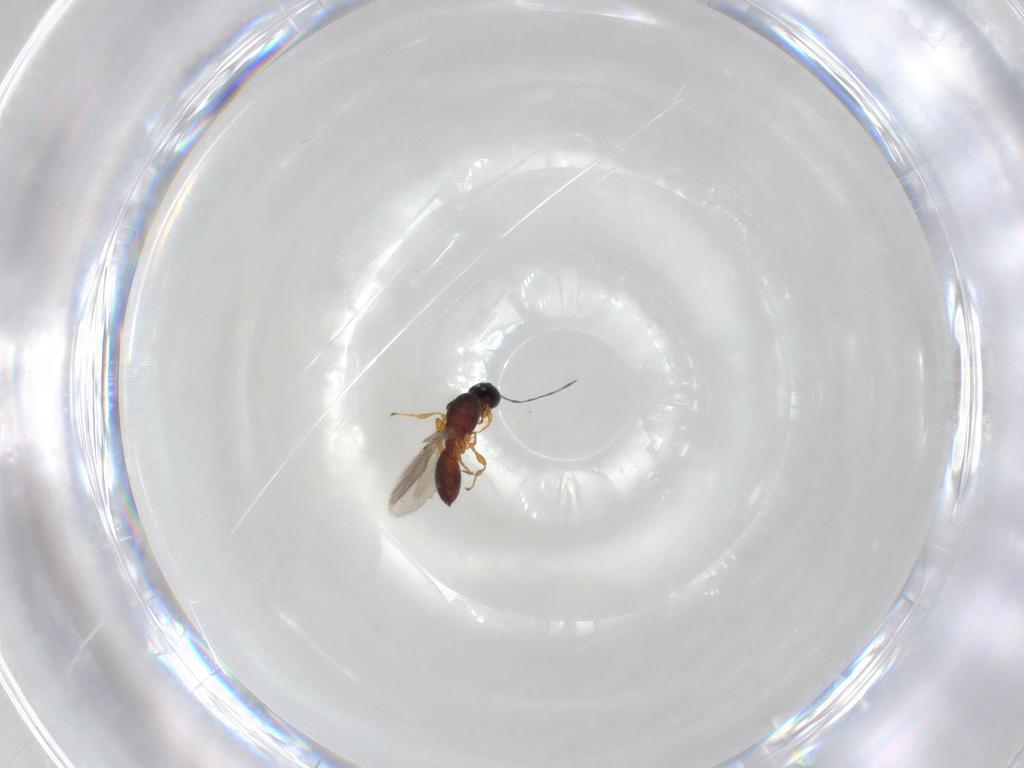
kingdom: Animalia
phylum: Arthropoda
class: Insecta
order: Hymenoptera
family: Diapriidae
